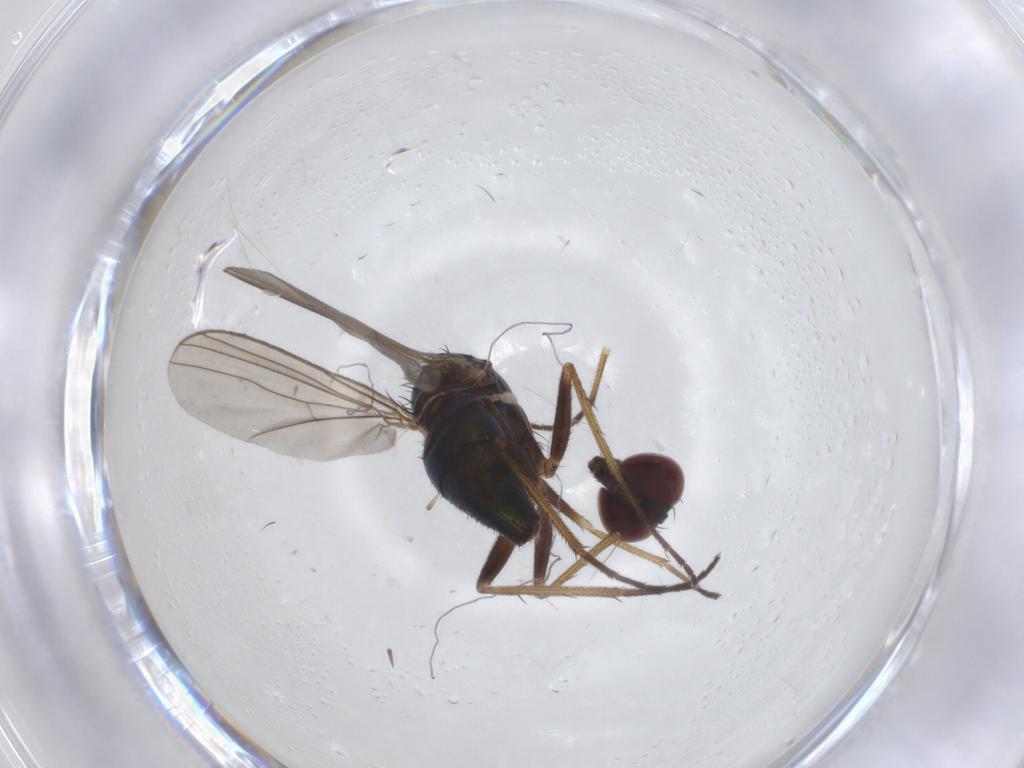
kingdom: Animalia
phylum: Arthropoda
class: Insecta
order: Diptera
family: Dolichopodidae
